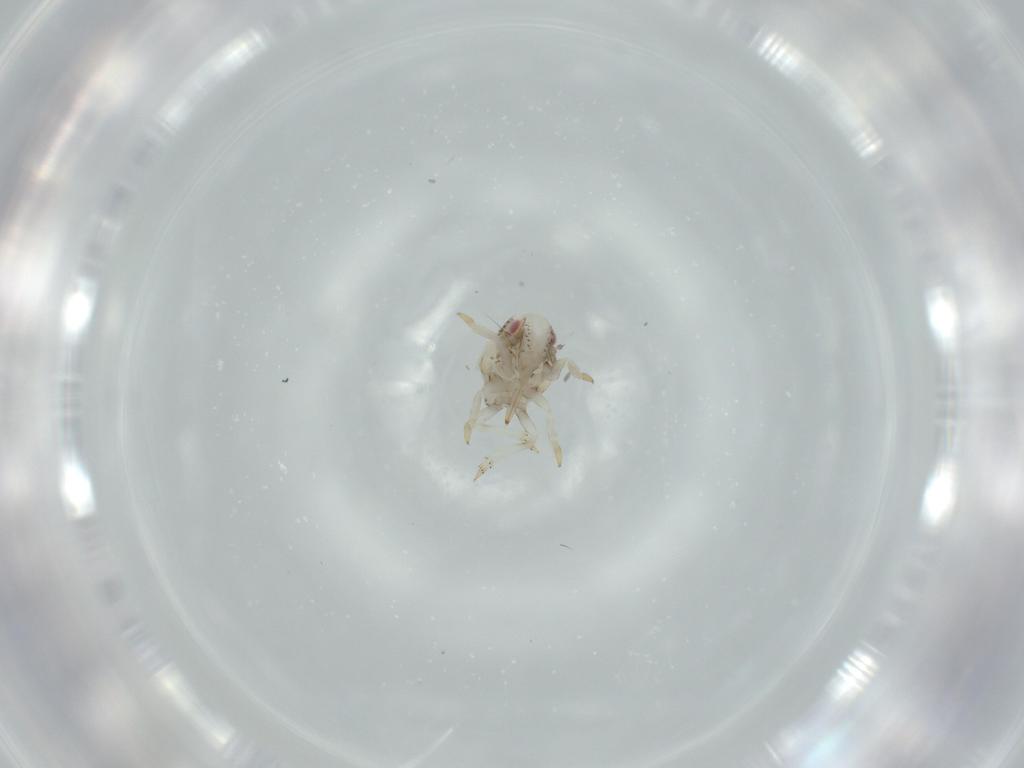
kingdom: Animalia
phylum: Arthropoda
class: Insecta
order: Hemiptera
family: Acanaloniidae
